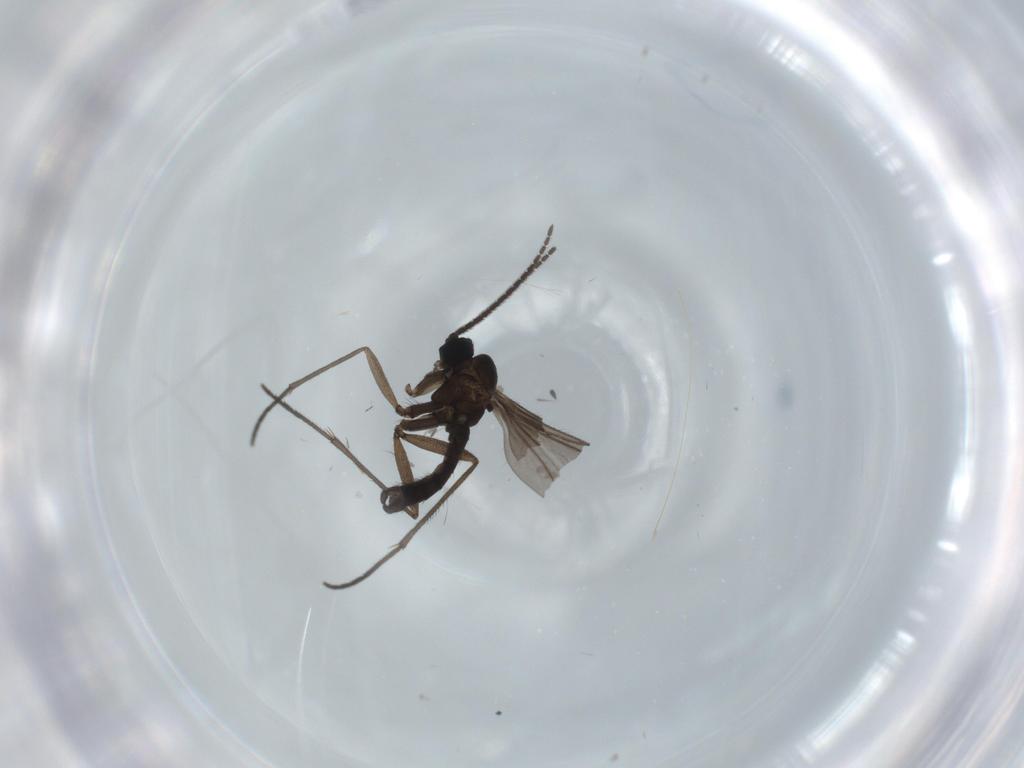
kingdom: Animalia
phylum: Arthropoda
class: Insecta
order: Diptera
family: Sciaridae
